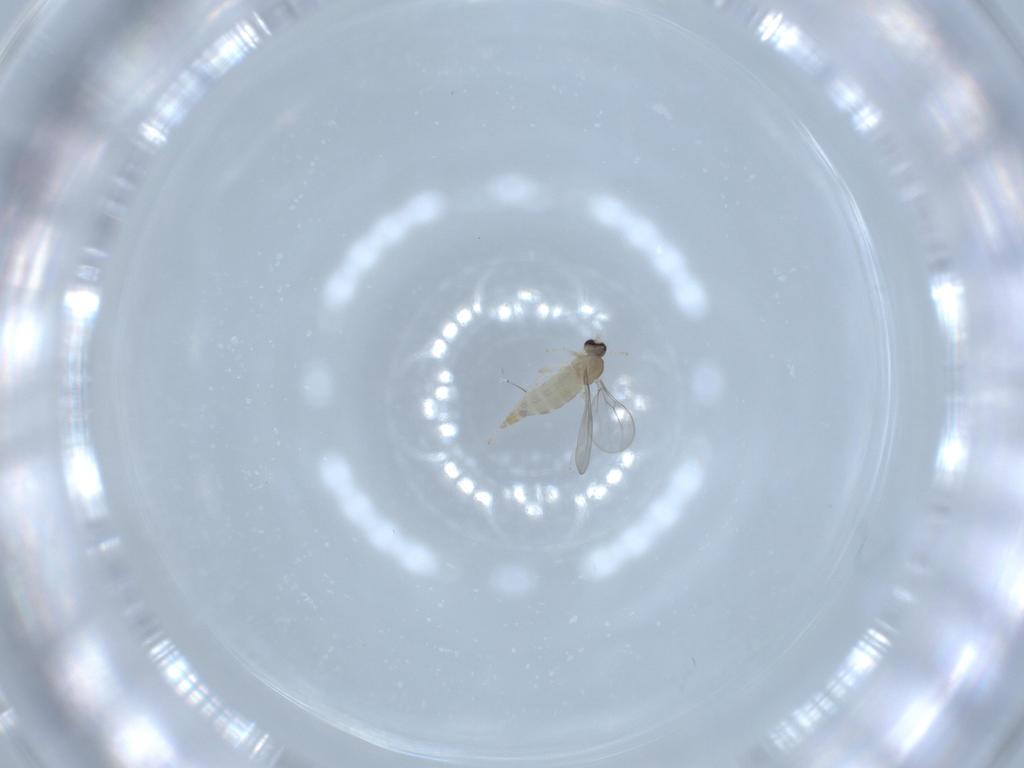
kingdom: Animalia
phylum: Arthropoda
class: Insecta
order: Diptera
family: Cecidomyiidae
